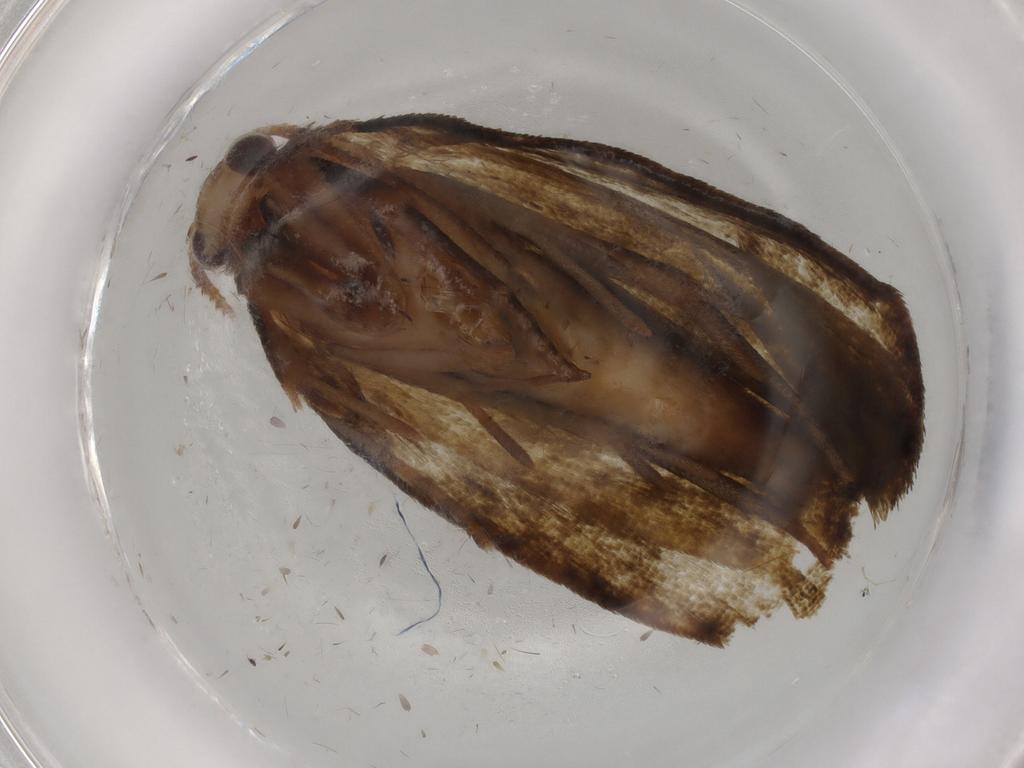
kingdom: Animalia
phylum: Arthropoda
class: Insecta
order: Lepidoptera
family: Geometridae
